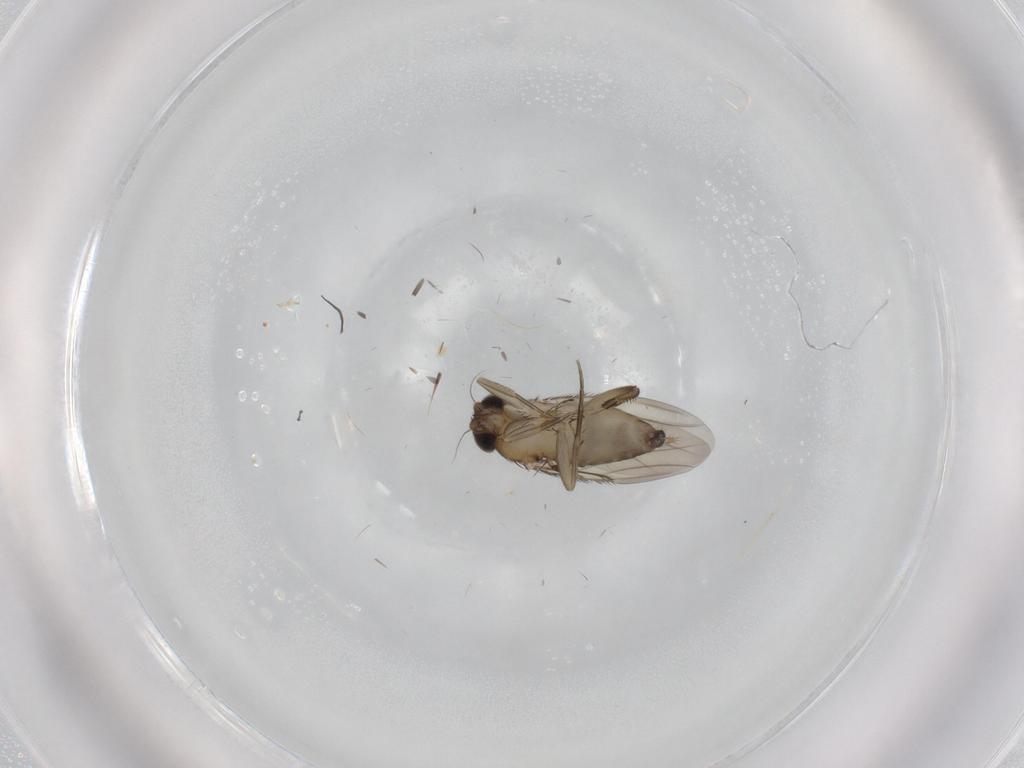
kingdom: Animalia
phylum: Arthropoda
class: Insecta
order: Diptera
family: Phoridae
